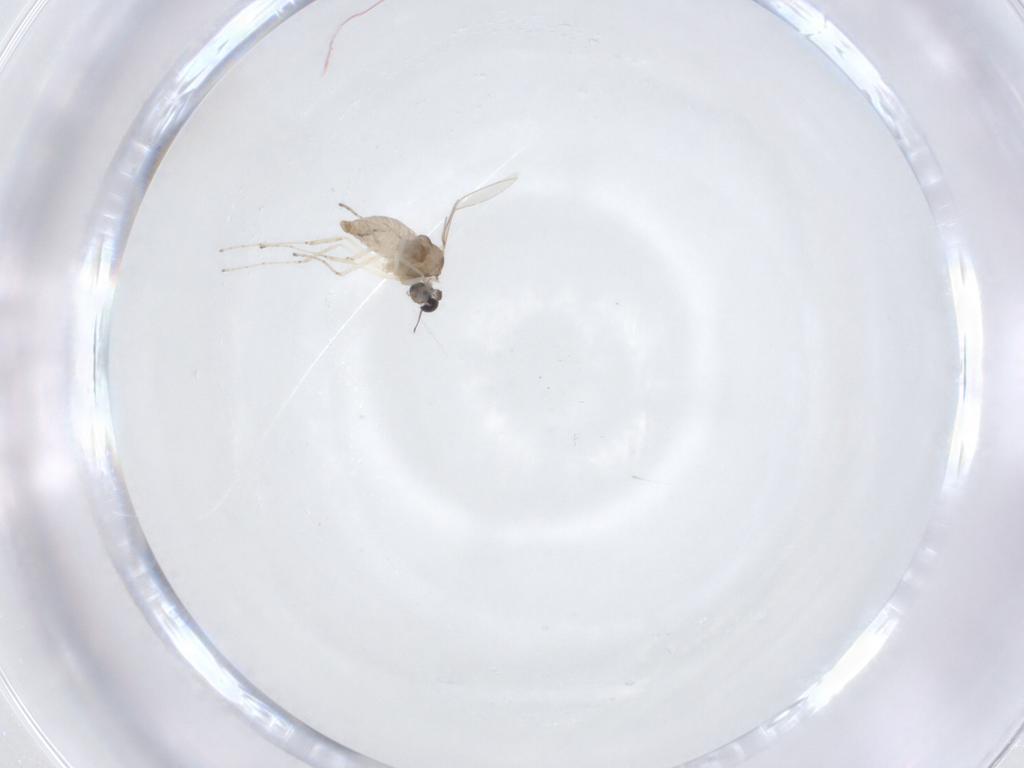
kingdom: Animalia
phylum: Arthropoda
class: Insecta
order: Diptera
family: Cecidomyiidae
